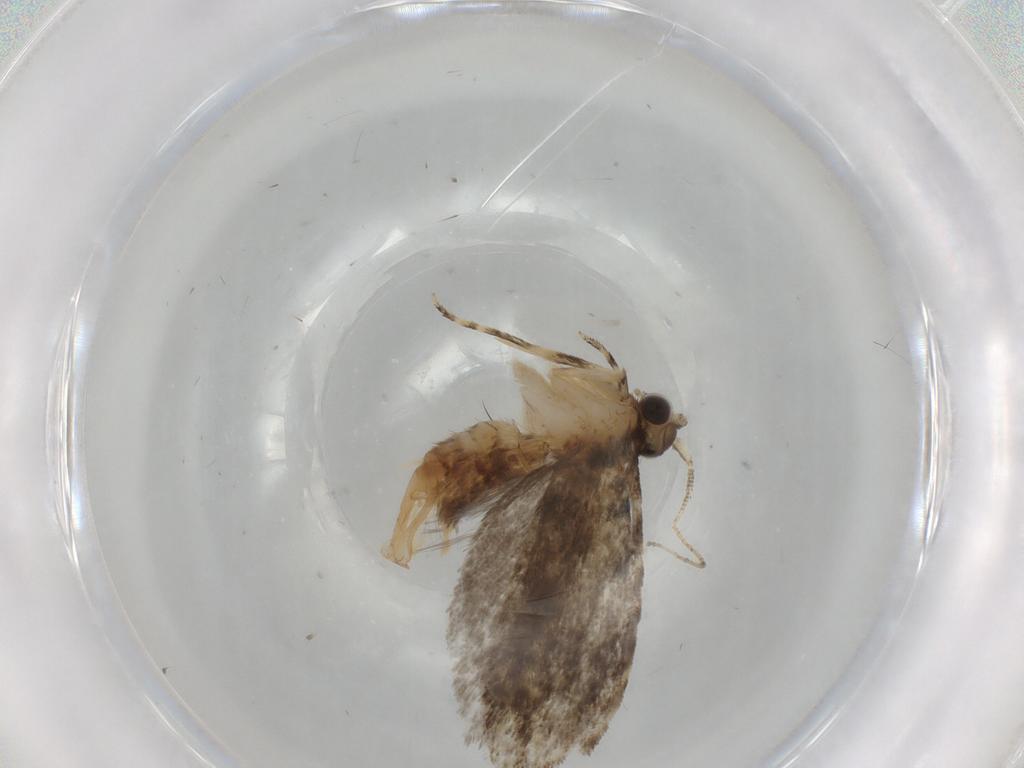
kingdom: Animalia
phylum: Arthropoda
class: Insecta
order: Lepidoptera
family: Tineidae
